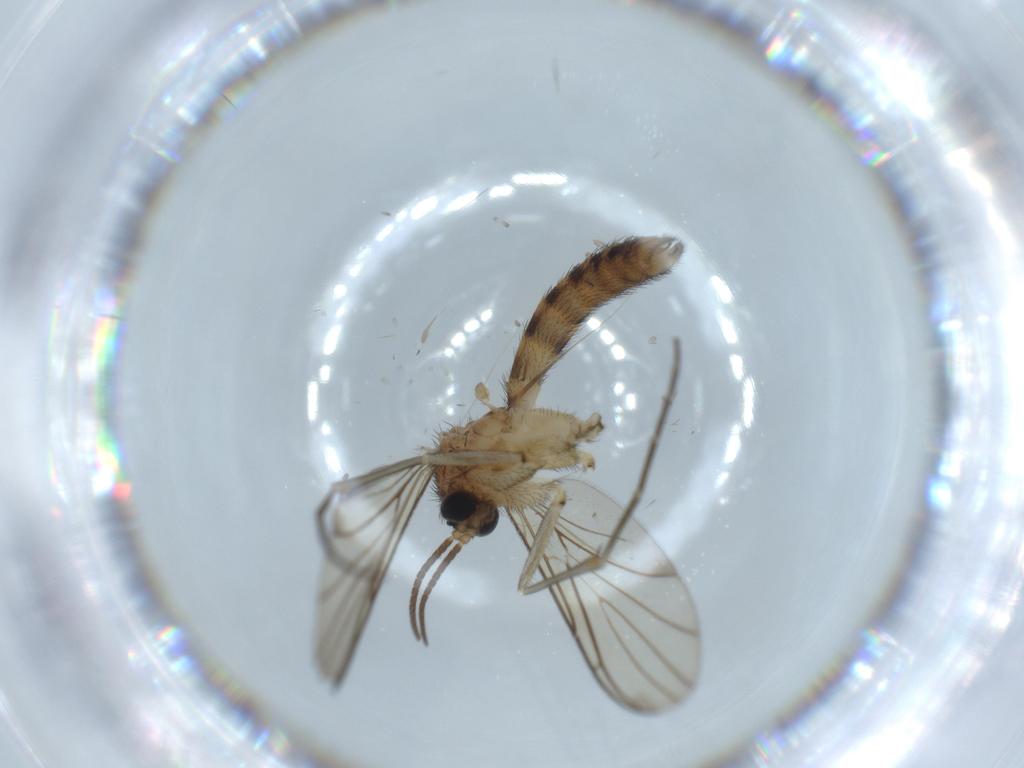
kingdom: Animalia
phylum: Arthropoda
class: Insecta
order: Diptera
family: Keroplatidae
